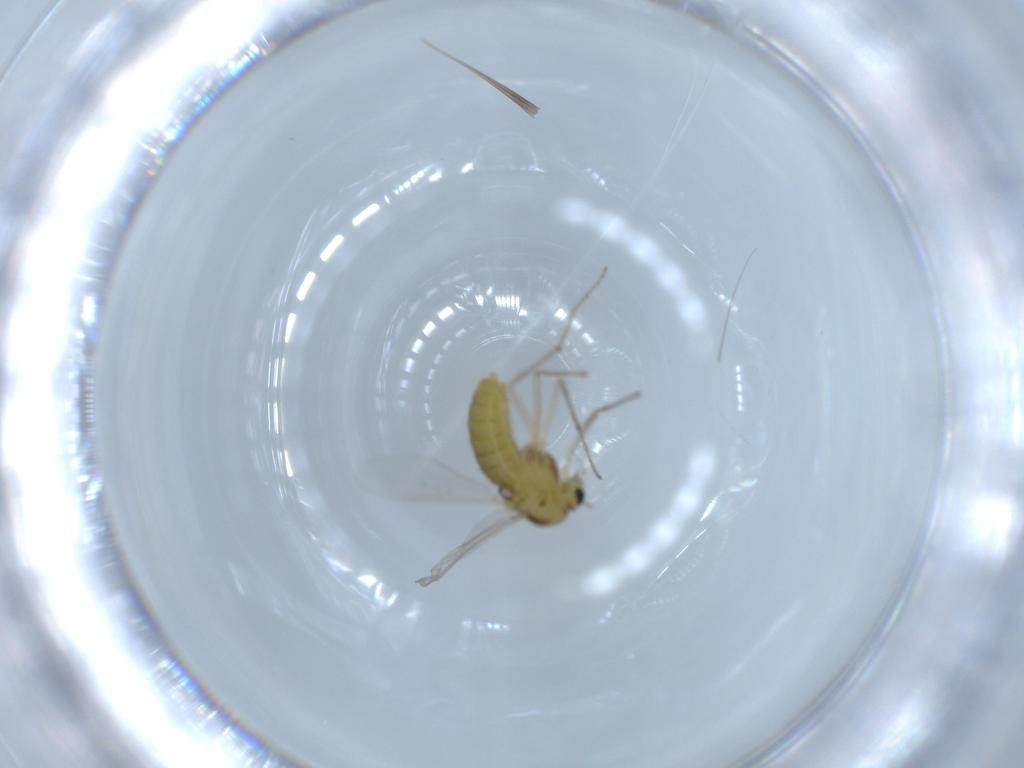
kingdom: Animalia
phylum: Arthropoda
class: Insecta
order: Diptera
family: Chironomidae
